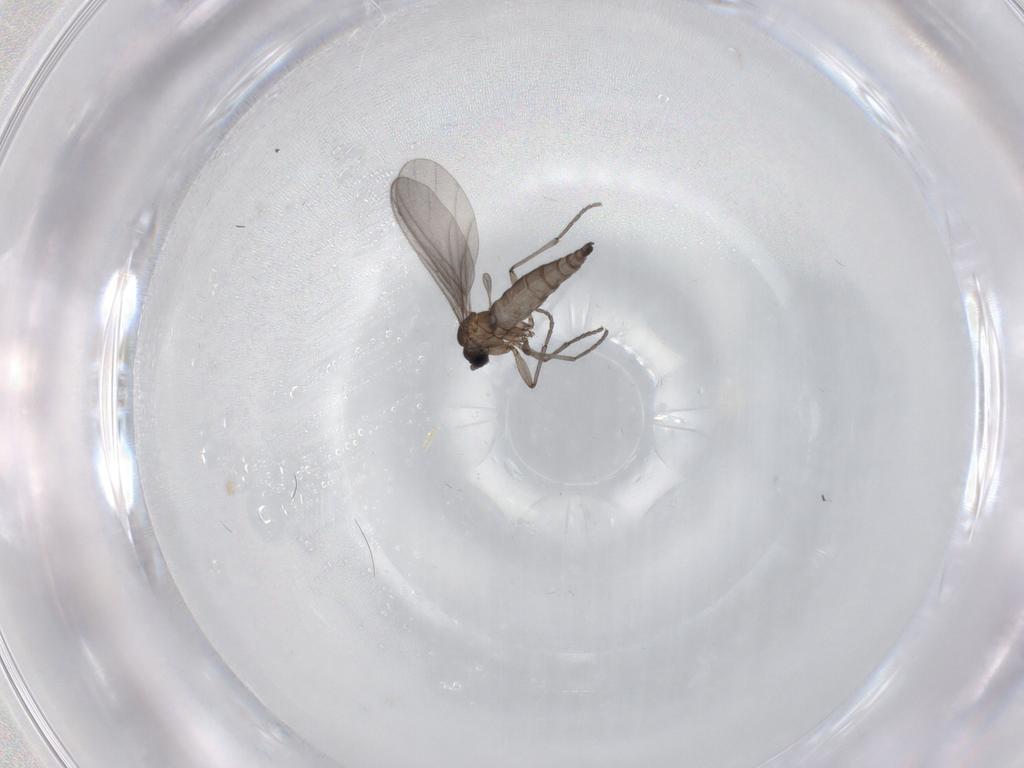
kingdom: Animalia
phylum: Arthropoda
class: Insecta
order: Diptera
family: Sciaridae
